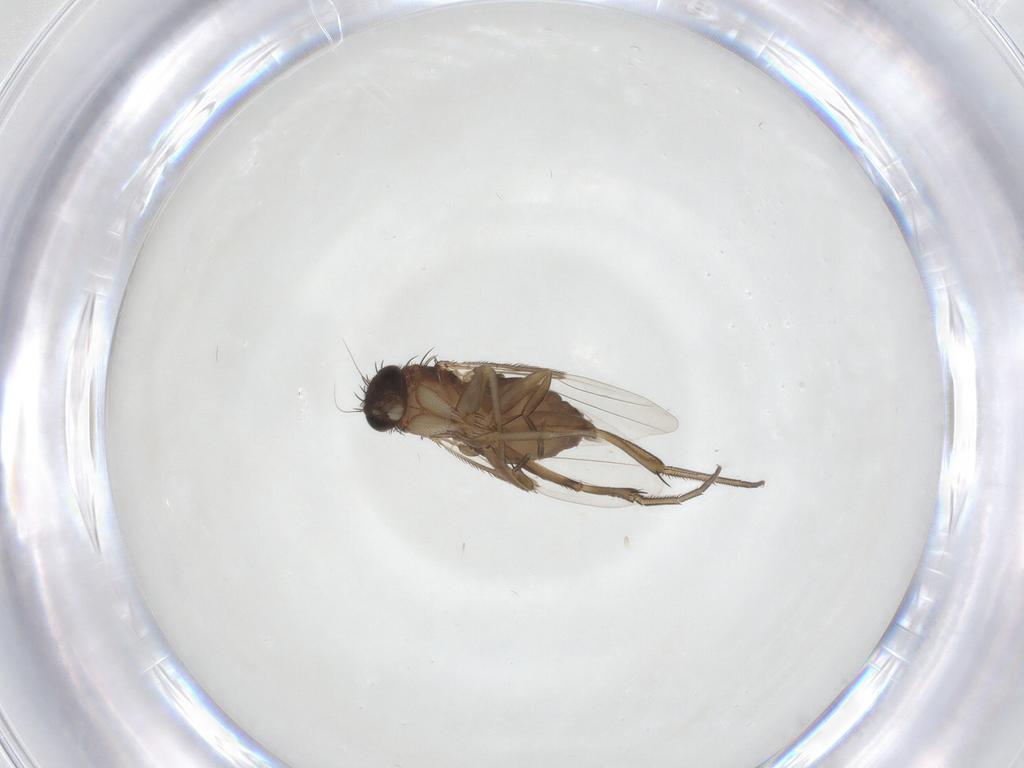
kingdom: Animalia
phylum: Arthropoda
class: Insecta
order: Diptera
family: Phoridae
